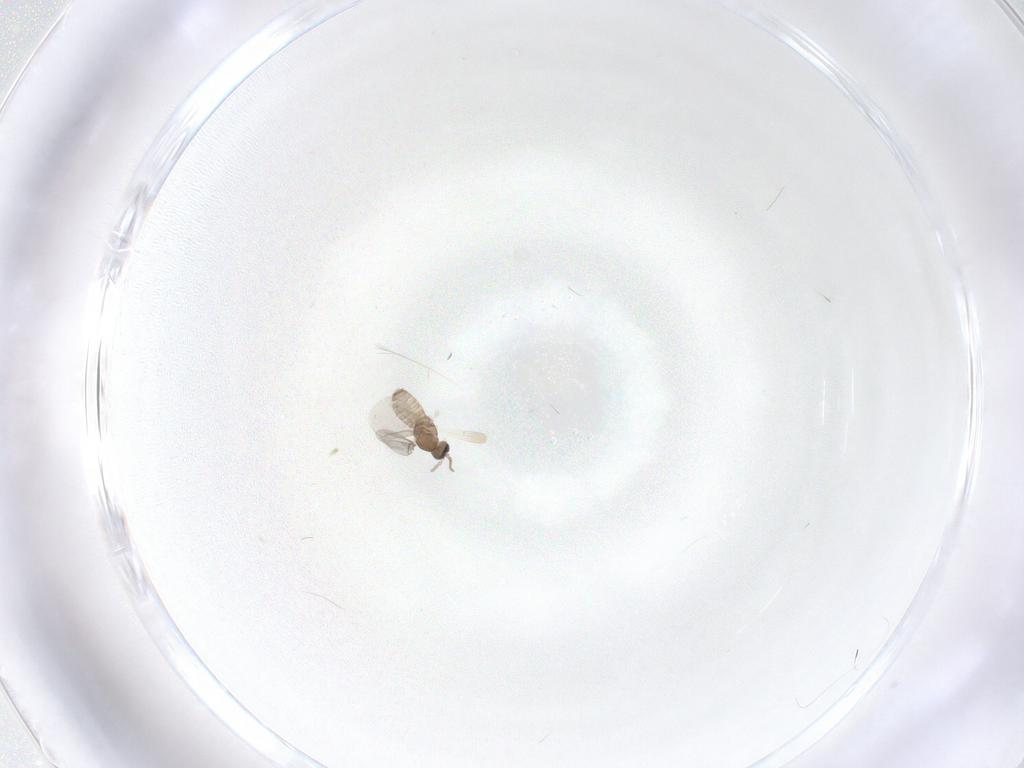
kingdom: Animalia
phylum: Arthropoda
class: Insecta
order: Diptera
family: Cecidomyiidae
